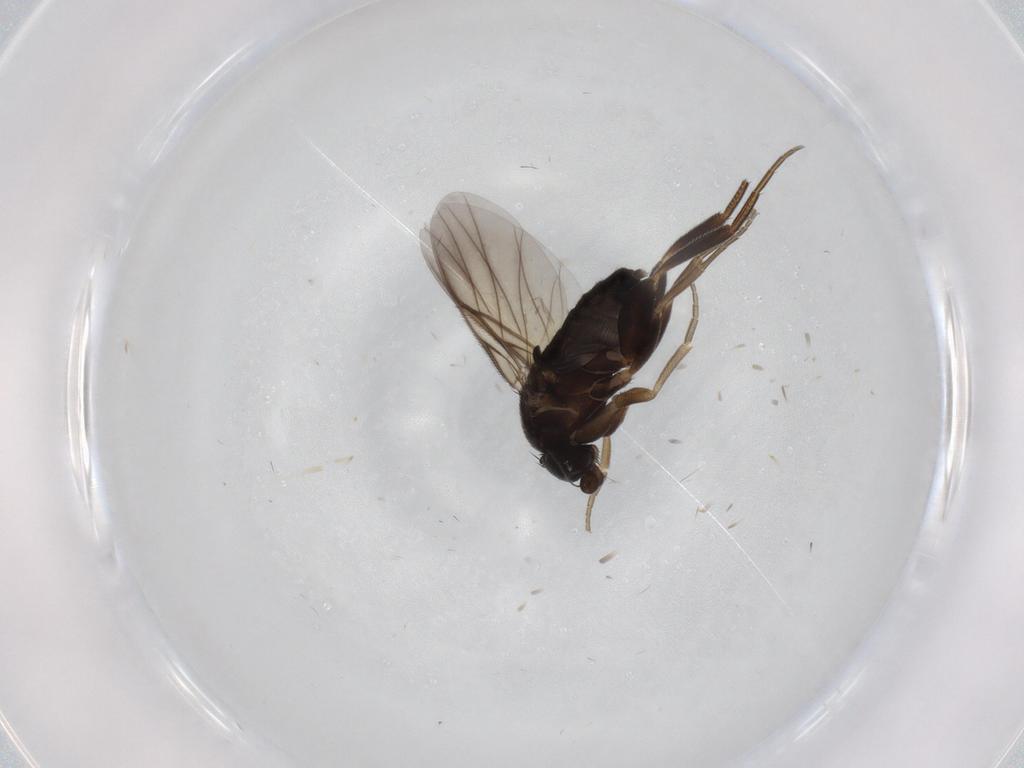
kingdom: Animalia
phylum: Arthropoda
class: Insecta
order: Diptera
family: Phoridae
